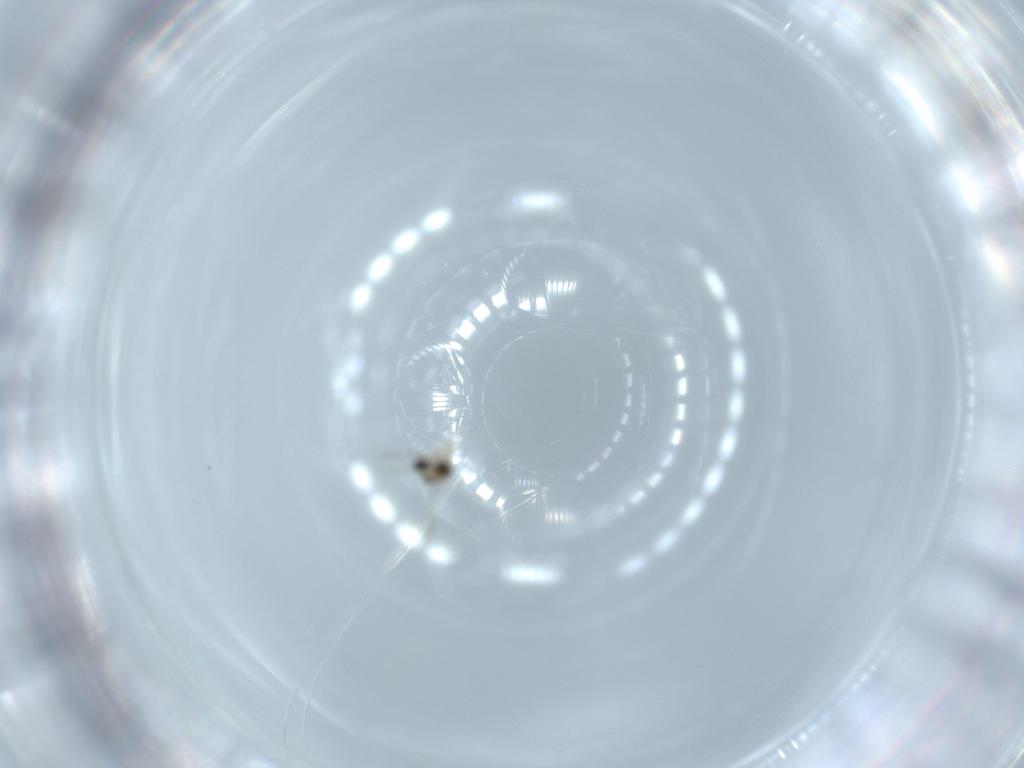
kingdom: Animalia
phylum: Arthropoda
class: Insecta
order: Diptera
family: Cecidomyiidae
